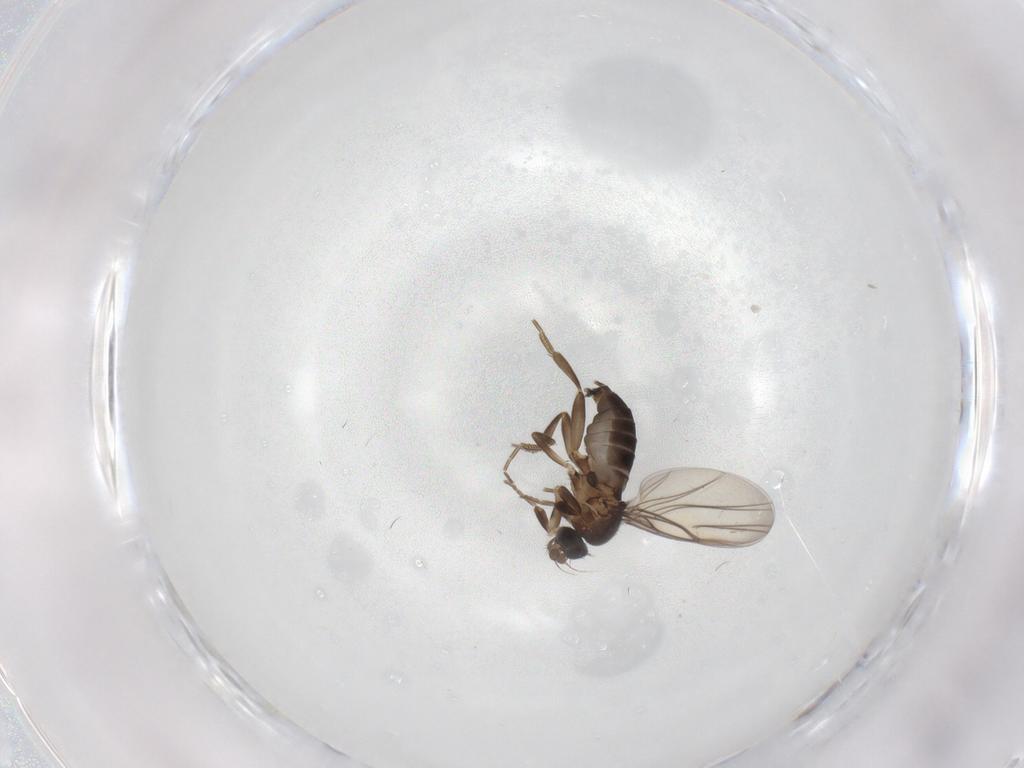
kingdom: Animalia
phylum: Arthropoda
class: Insecta
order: Diptera
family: Phoridae
